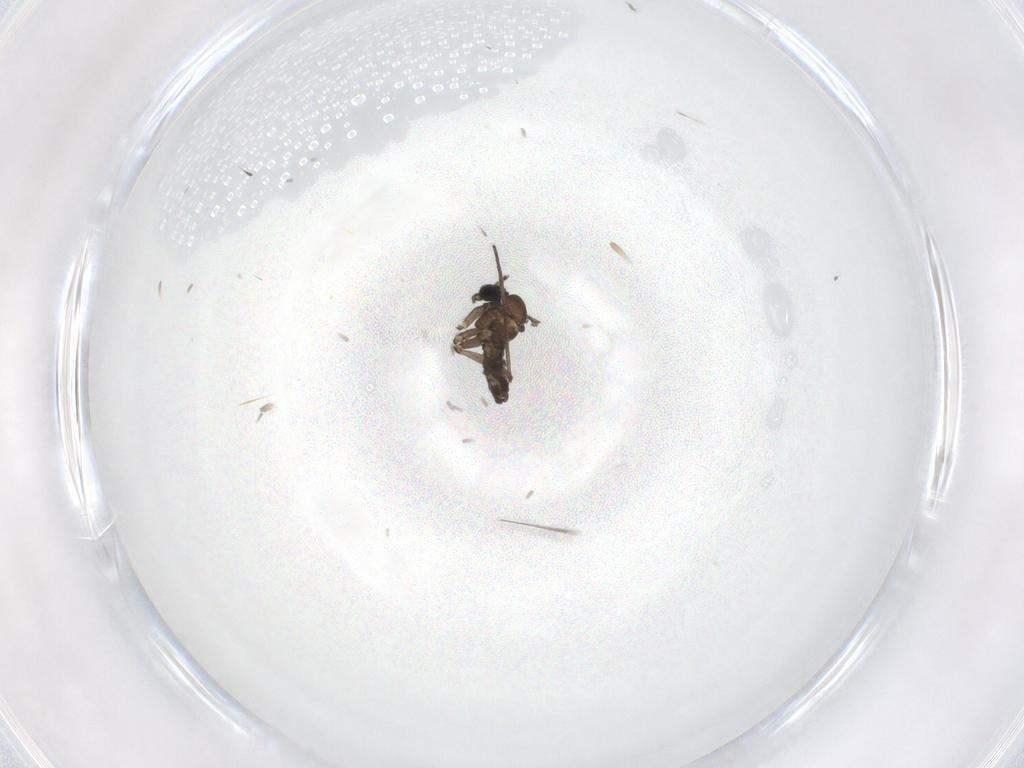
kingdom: Animalia
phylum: Arthropoda
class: Insecta
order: Diptera
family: Sciaridae
